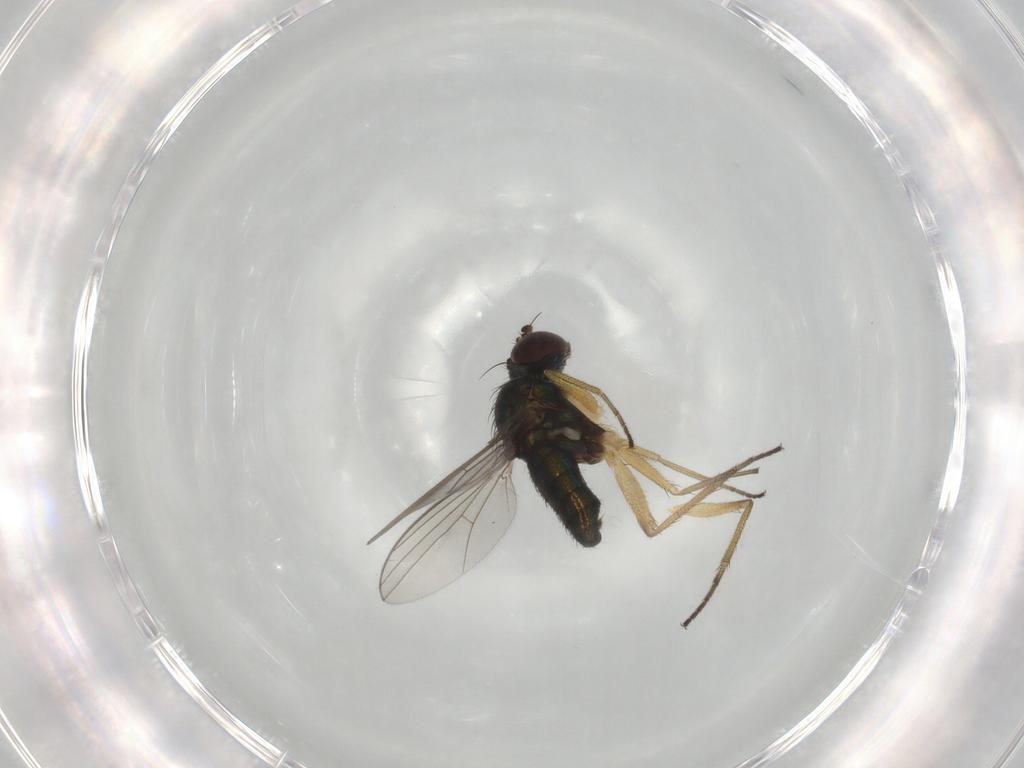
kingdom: Animalia
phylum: Arthropoda
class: Insecta
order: Diptera
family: Dolichopodidae
